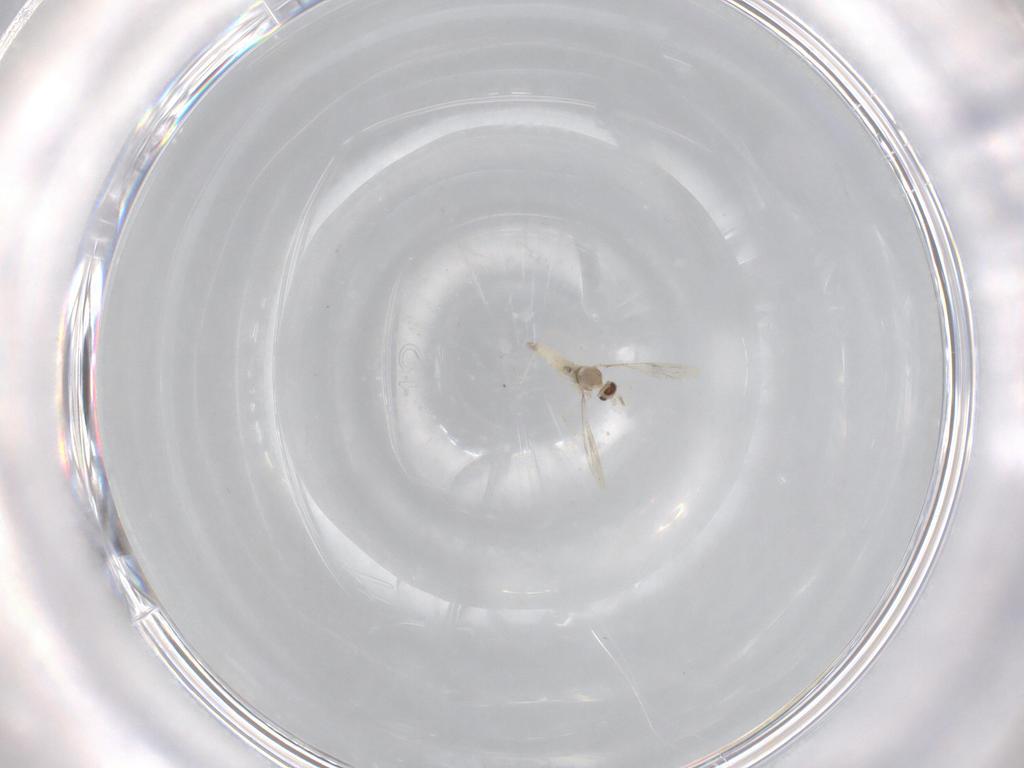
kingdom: Animalia
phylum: Arthropoda
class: Insecta
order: Diptera
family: Cecidomyiidae
